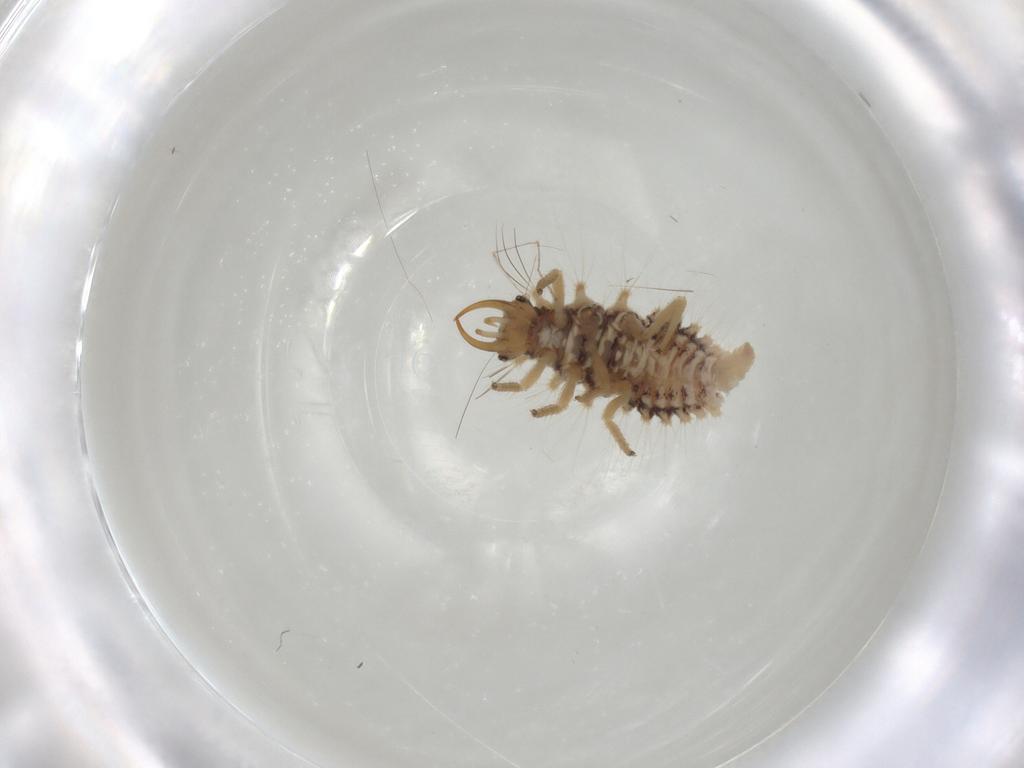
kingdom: Animalia
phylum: Arthropoda
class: Insecta
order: Neuroptera
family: Chrysopidae
